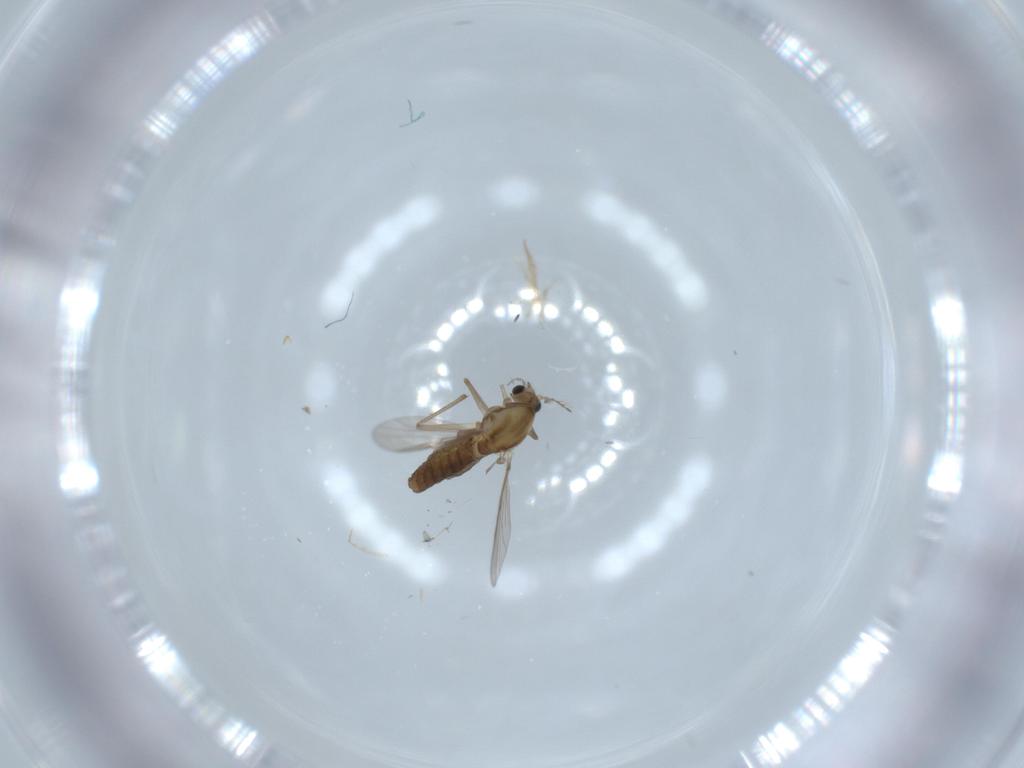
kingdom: Animalia
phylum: Arthropoda
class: Insecta
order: Diptera
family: Chironomidae
